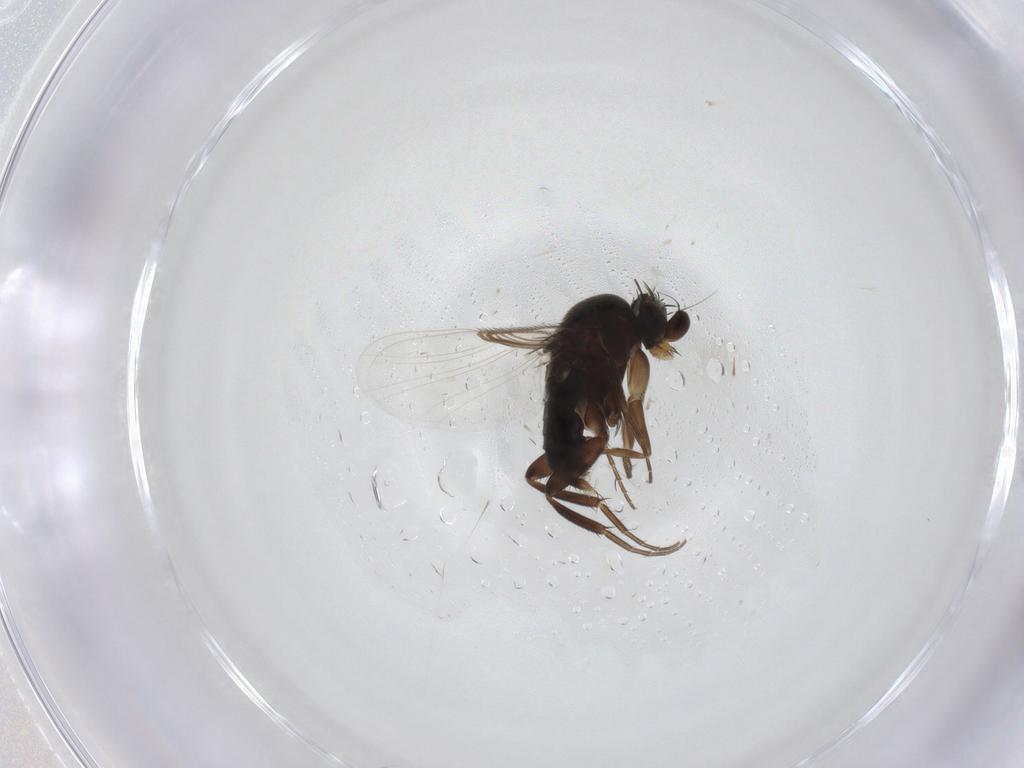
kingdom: Animalia
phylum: Arthropoda
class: Insecta
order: Diptera
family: Phoridae
